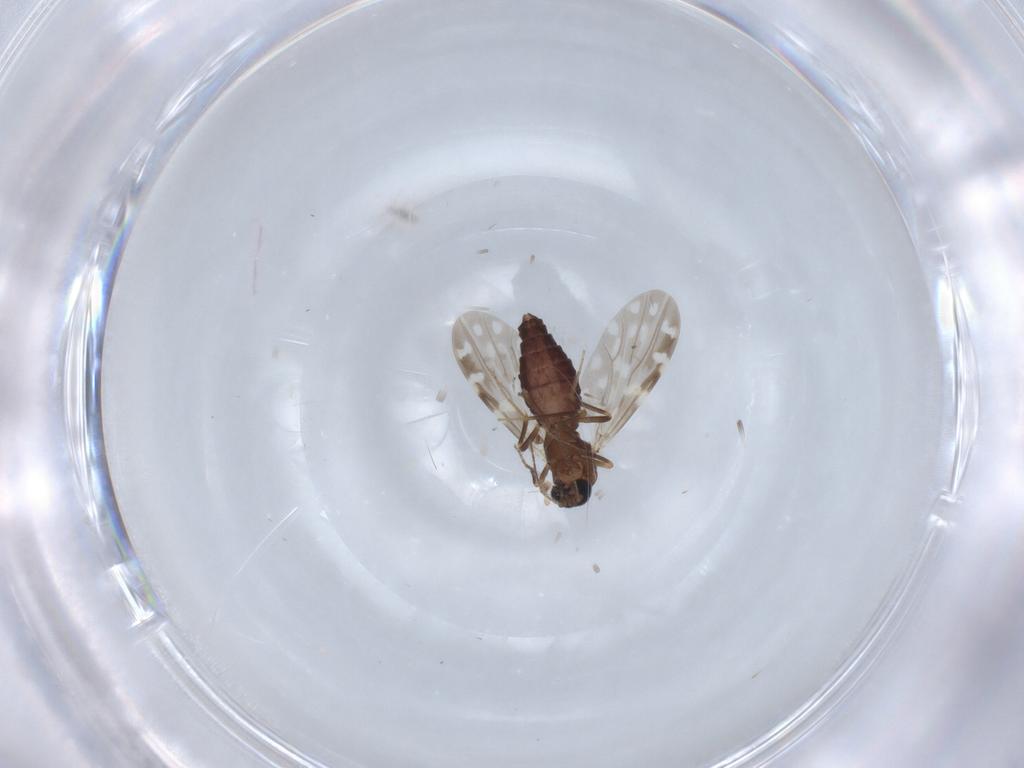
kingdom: Animalia
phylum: Arthropoda
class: Insecta
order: Diptera
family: Ceratopogonidae
